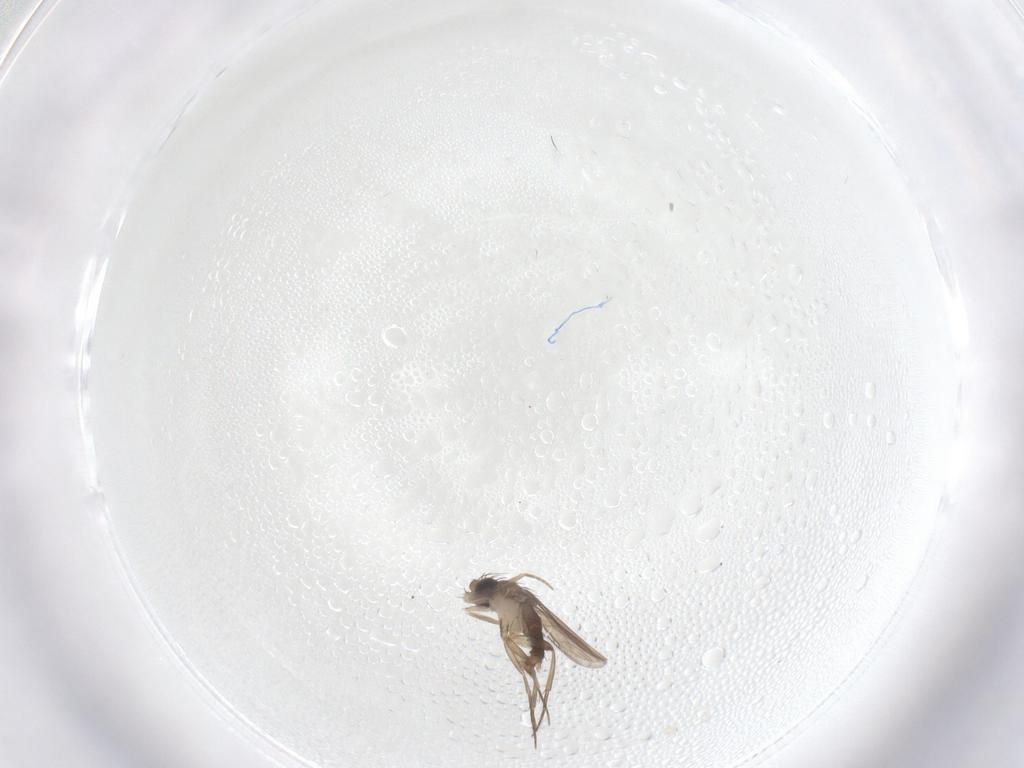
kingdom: Animalia
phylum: Arthropoda
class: Insecta
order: Diptera
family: Phoridae
